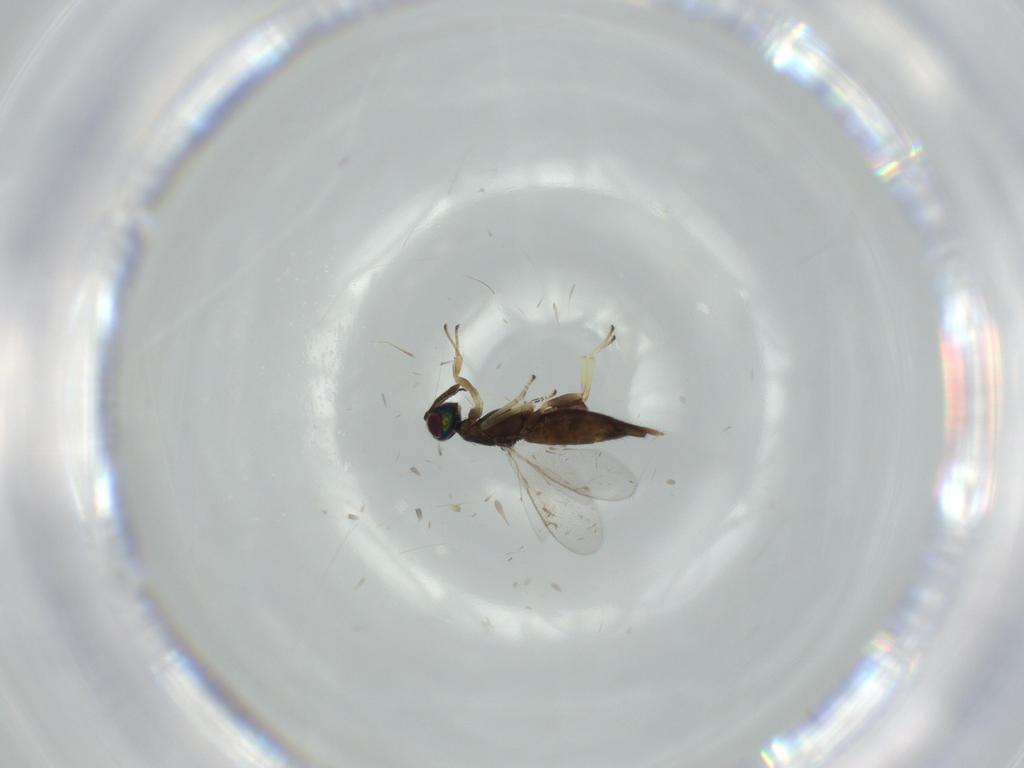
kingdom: Animalia
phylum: Arthropoda
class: Insecta
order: Hymenoptera
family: Eupelmidae
